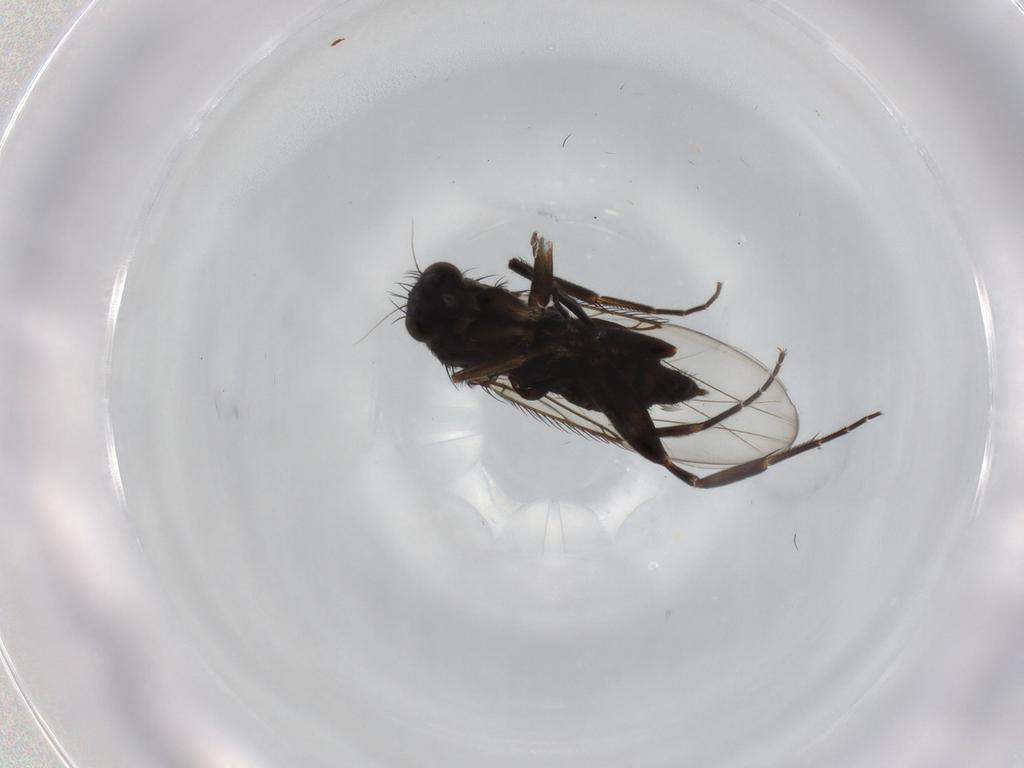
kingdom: Animalia
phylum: Arthropoda
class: Insecta
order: Diptera
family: Phoridae
